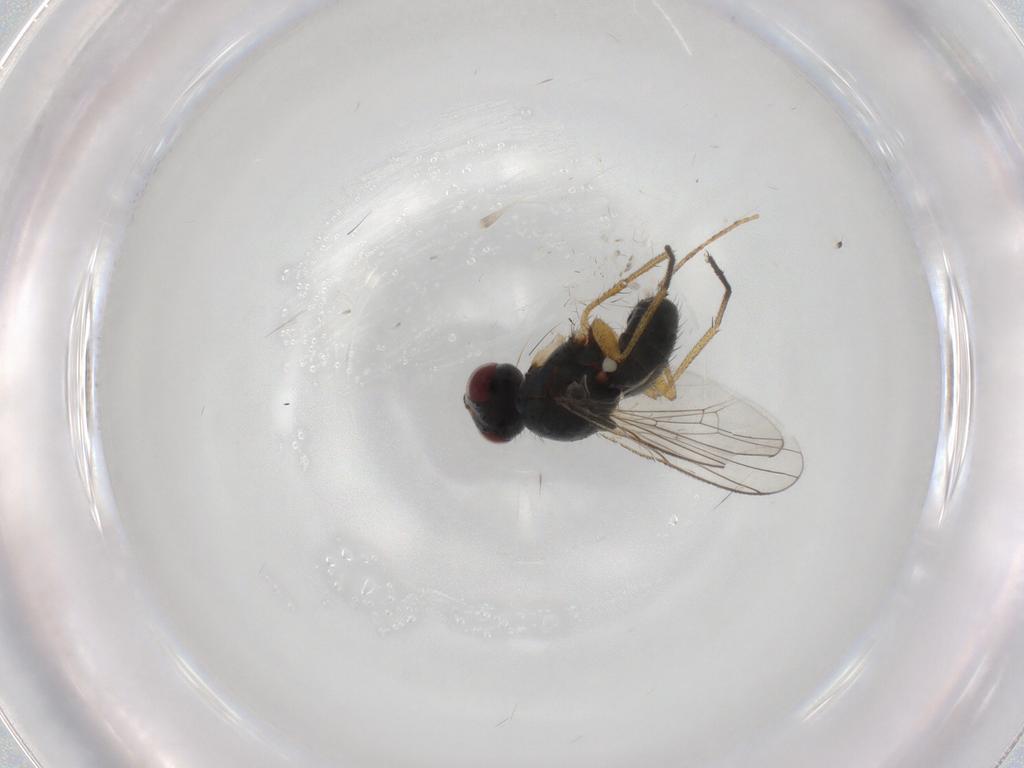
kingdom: Animalia
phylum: Arthropoda
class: Insecta
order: Diptera
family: Muscidae
